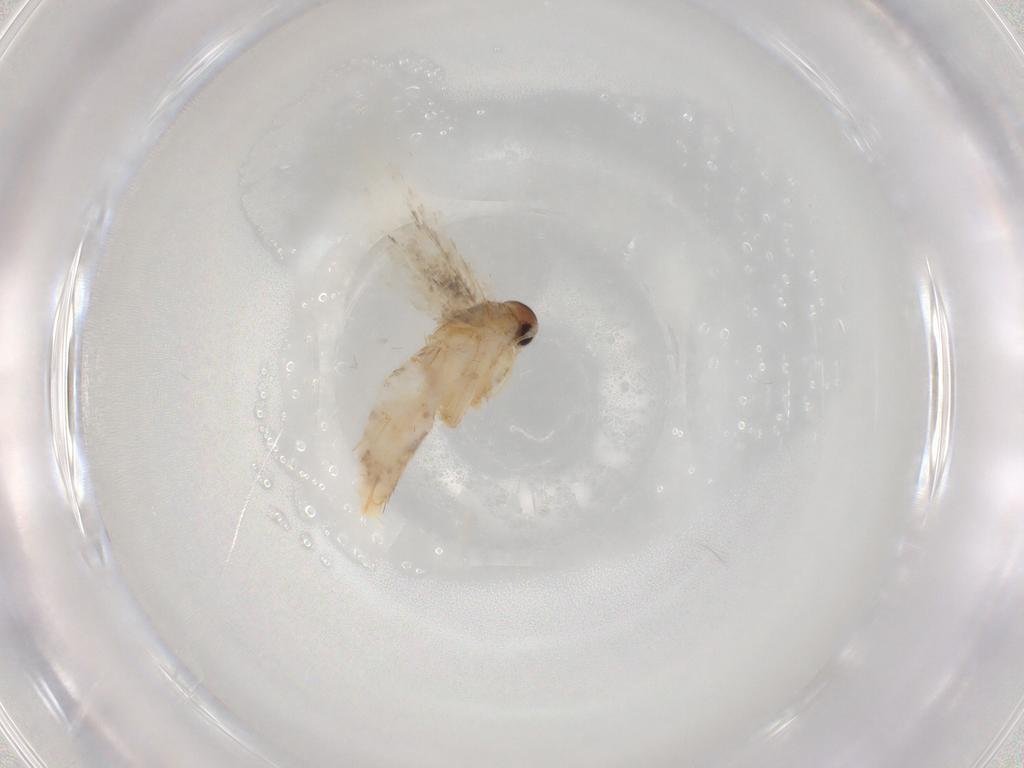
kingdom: Animalia
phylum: Arthropoda
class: Insecta
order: Lepidoptera
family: Gelechiidae
